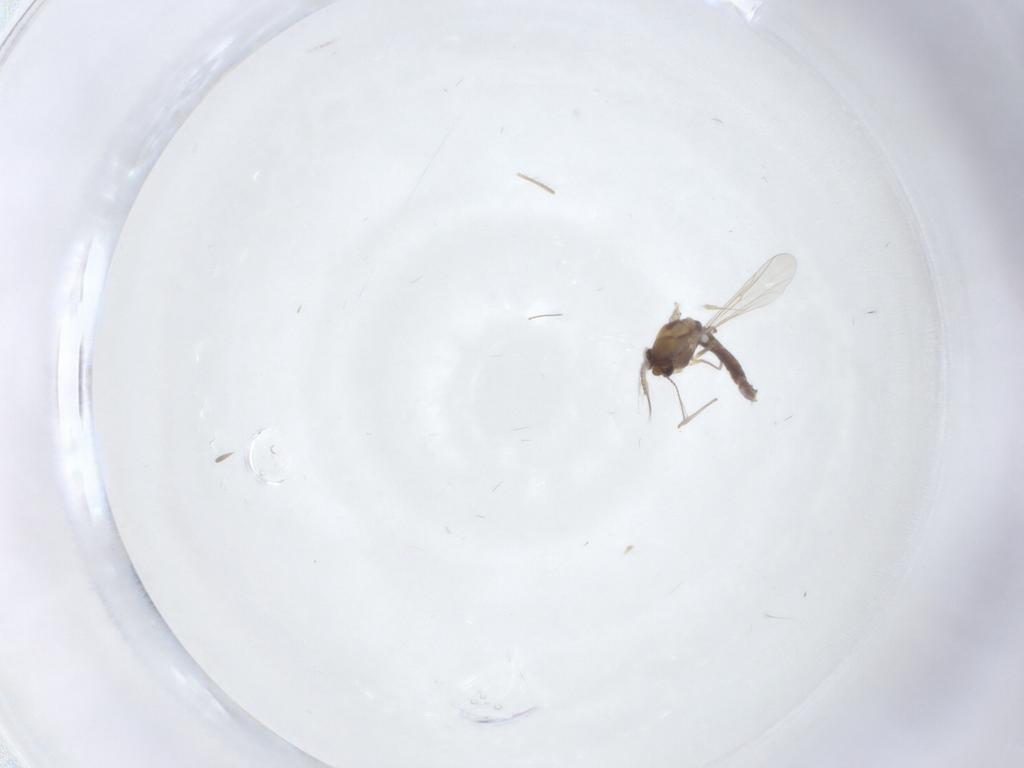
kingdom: Animalia
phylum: Arthropoda
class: Insecta
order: Diptera
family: Chironomidae
